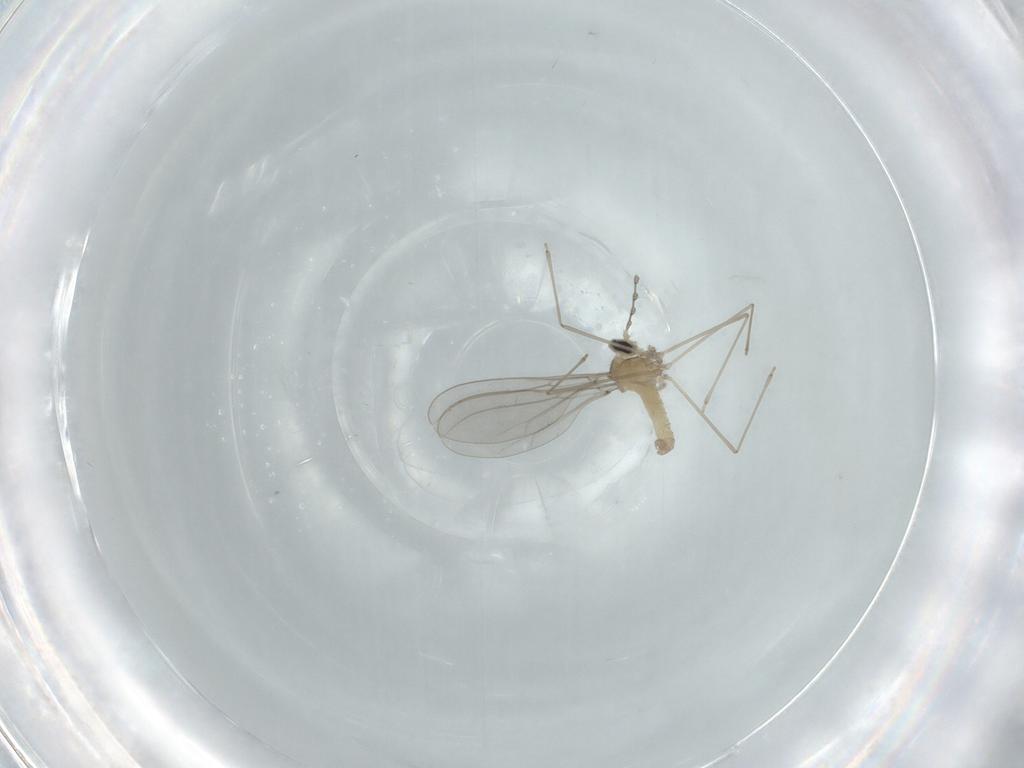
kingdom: Animalia
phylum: Arthropoda
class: Insecta
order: Diptera
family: Cecidomyiidae
